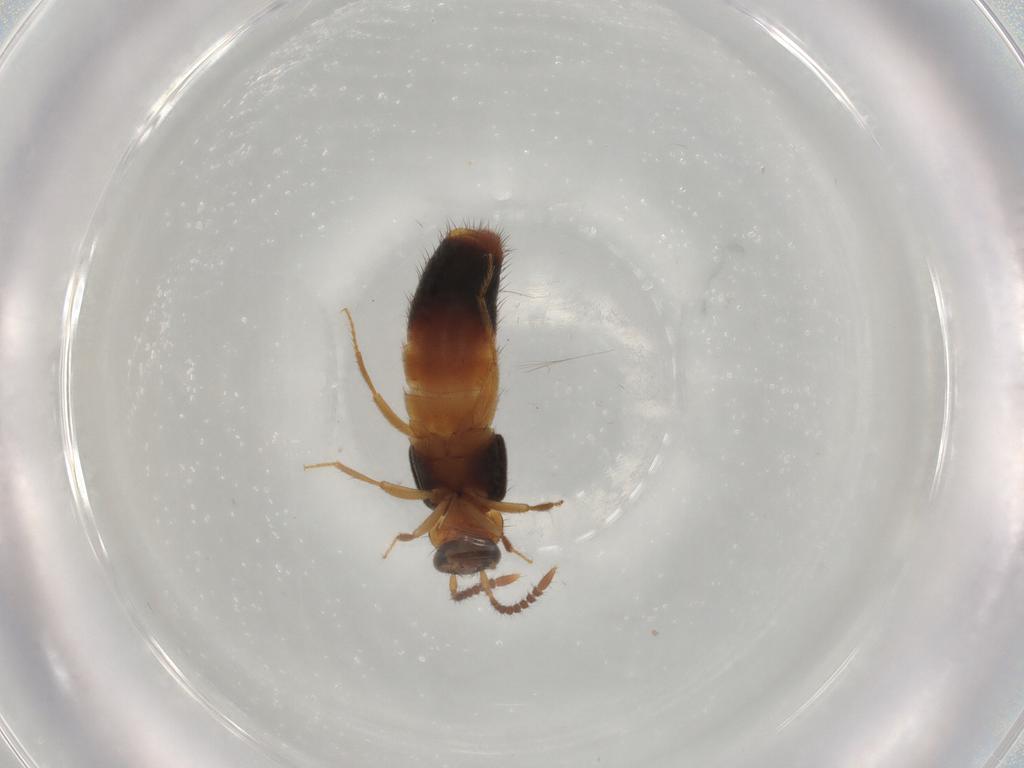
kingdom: Animalia
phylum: Arthropoda
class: Insecta
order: Coleoptera
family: Staphylinidae
